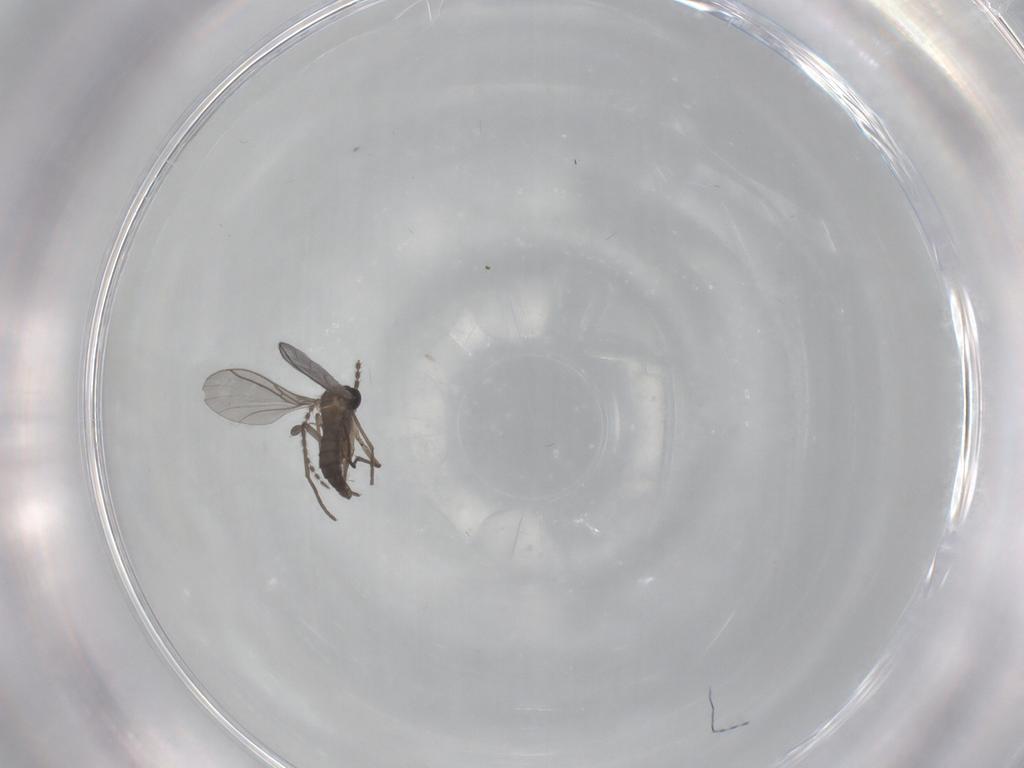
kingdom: Animalia
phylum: Arthropoda
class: Insecta
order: Diptera
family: Sciaridae
